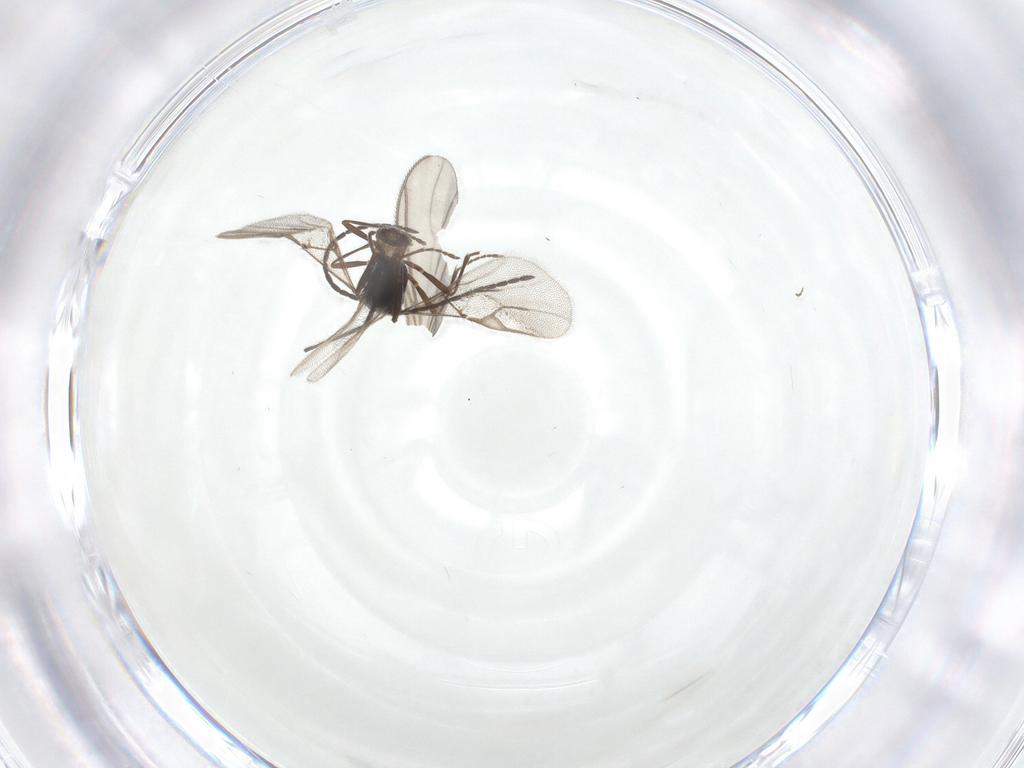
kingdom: Animalia
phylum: Arthropoda
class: Insecta
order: Hymenoptera
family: Braconidae
